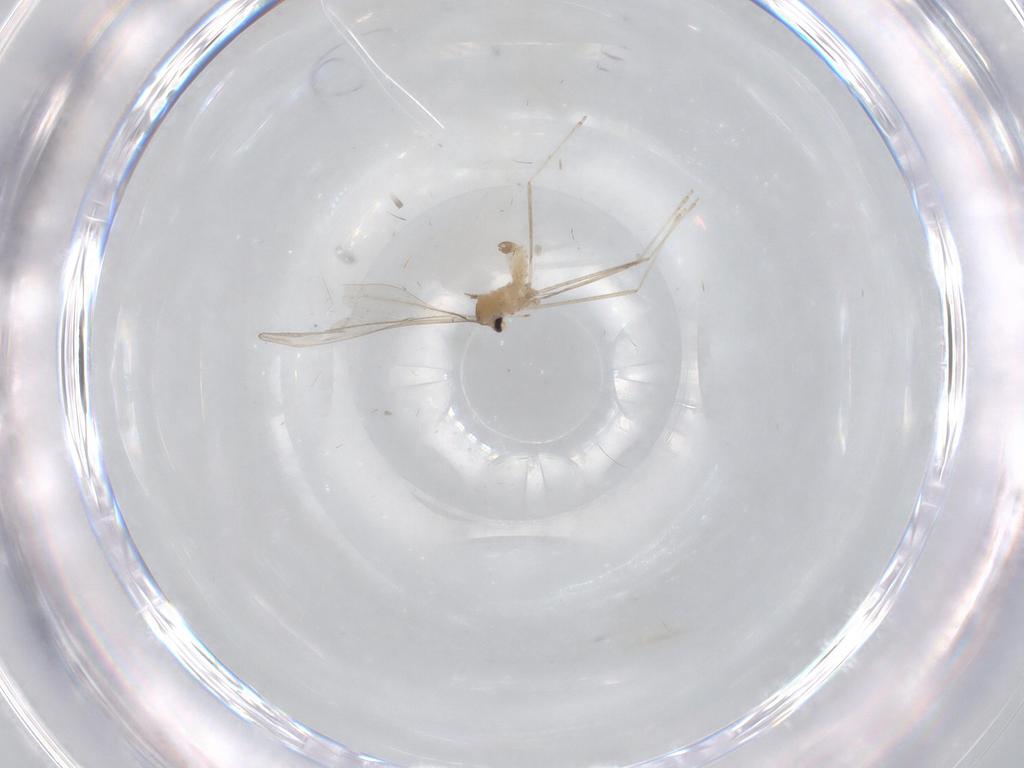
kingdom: Animalia
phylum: Arthropoda
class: Insecta
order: Diptera
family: Cecidomyiidae
